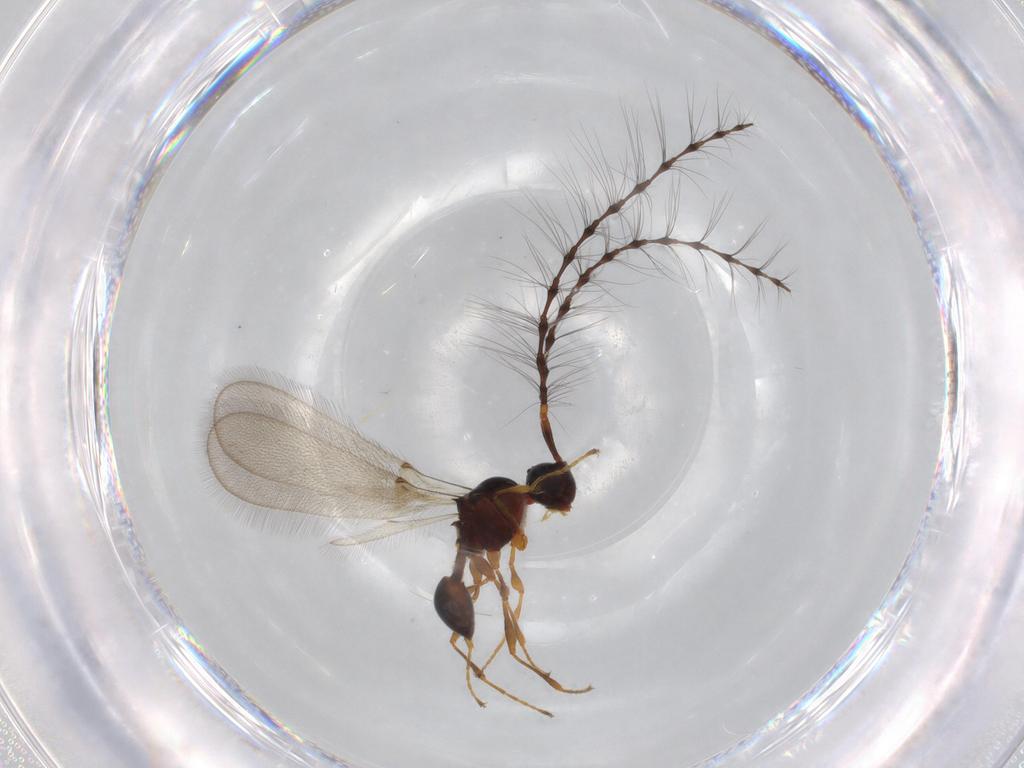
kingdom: Animalia
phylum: Arthropoda
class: Insecta
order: Hymenoptera
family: Diapriidae
